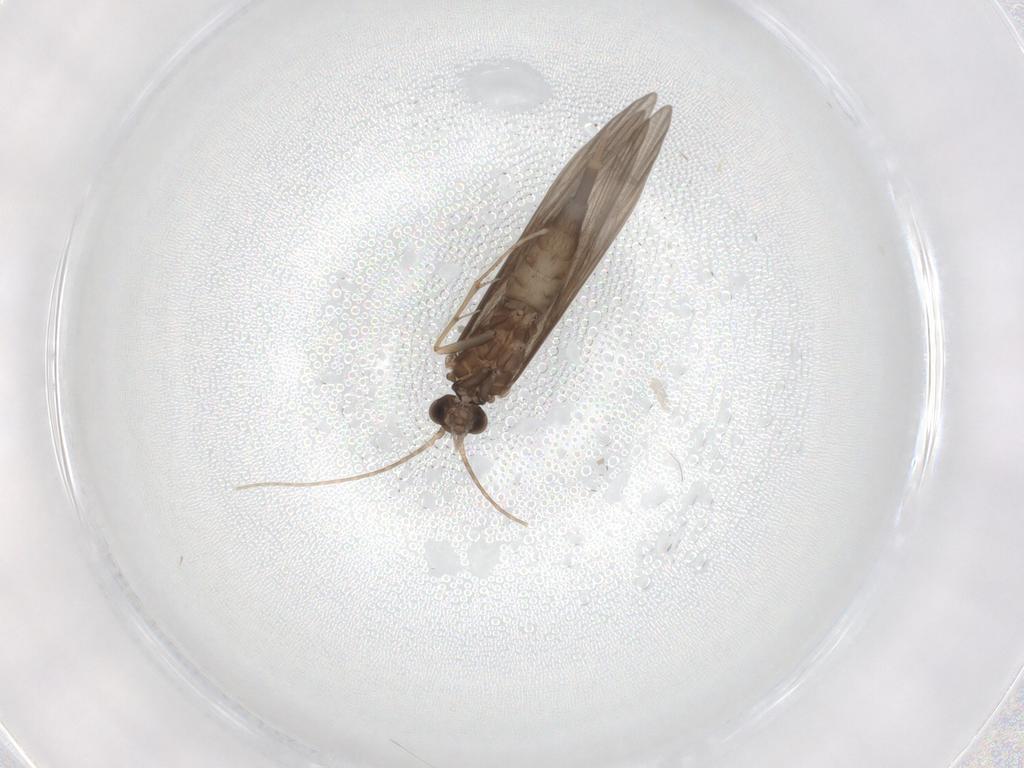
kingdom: Animalia
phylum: Arthropoda
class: Insecta
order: Trichoptera
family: Xiphocentronidae
